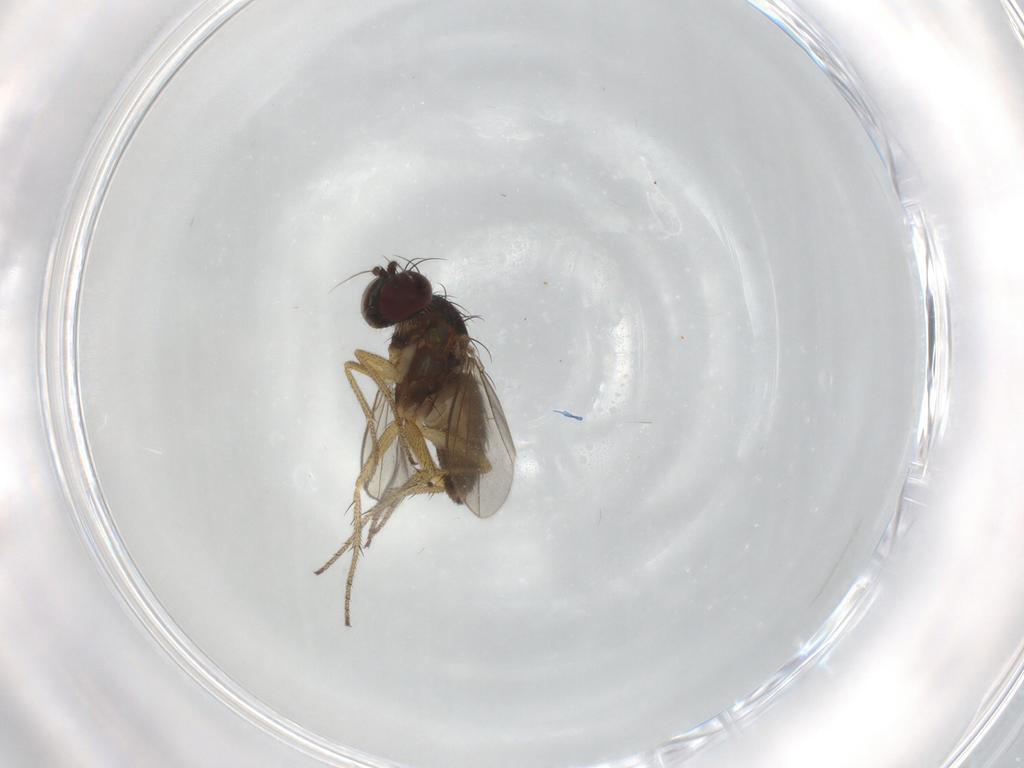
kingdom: Animalia
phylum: Arthropoda
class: Insecta
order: Diptera
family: Dolichopodidae
